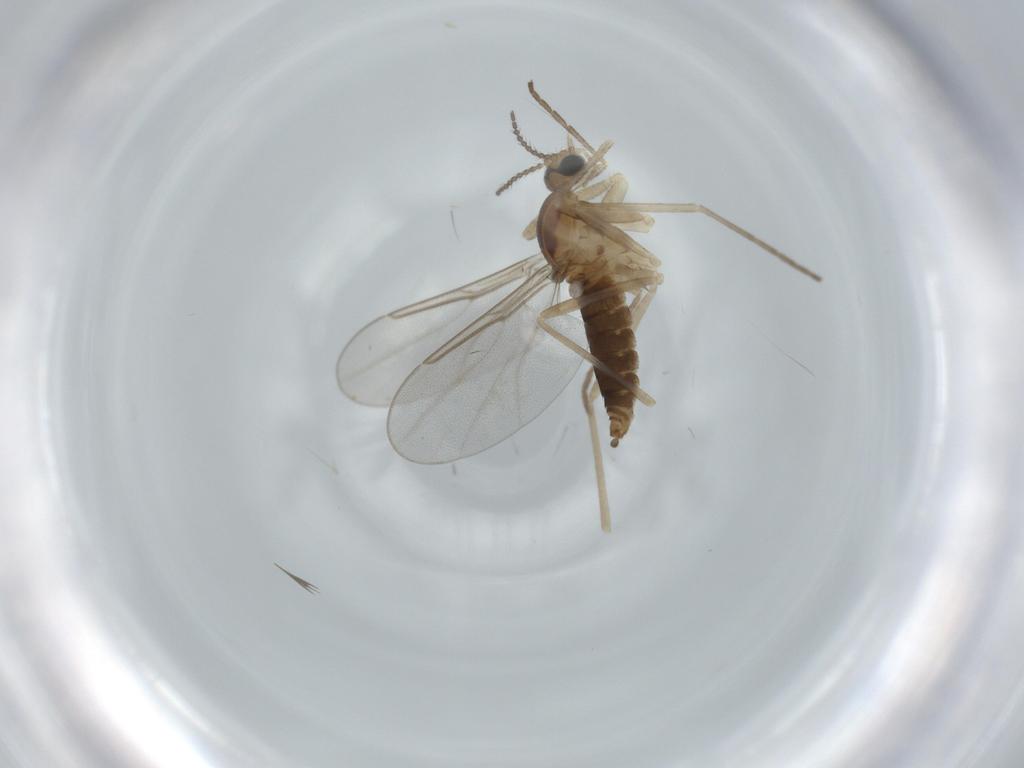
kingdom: Animalia
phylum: Arthropoda
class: Insecta
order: Diptera
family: Cecidomyiidae
